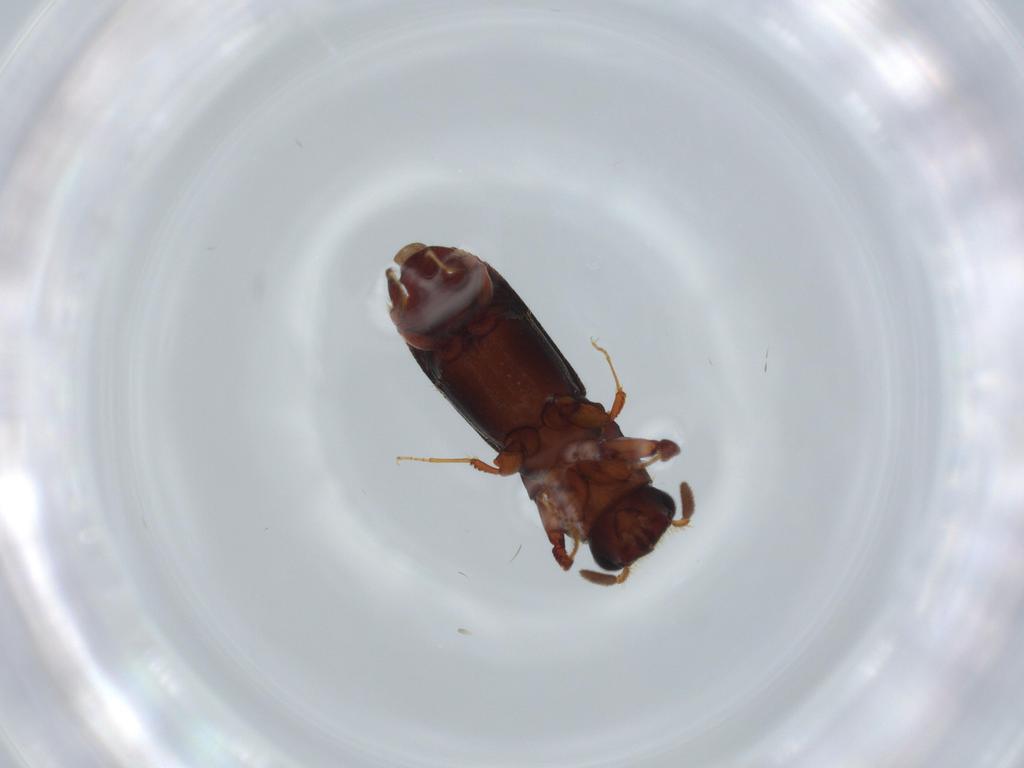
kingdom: Animalia
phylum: Arthropoda
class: Insecta
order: Coleoptera
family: Curculionidae
